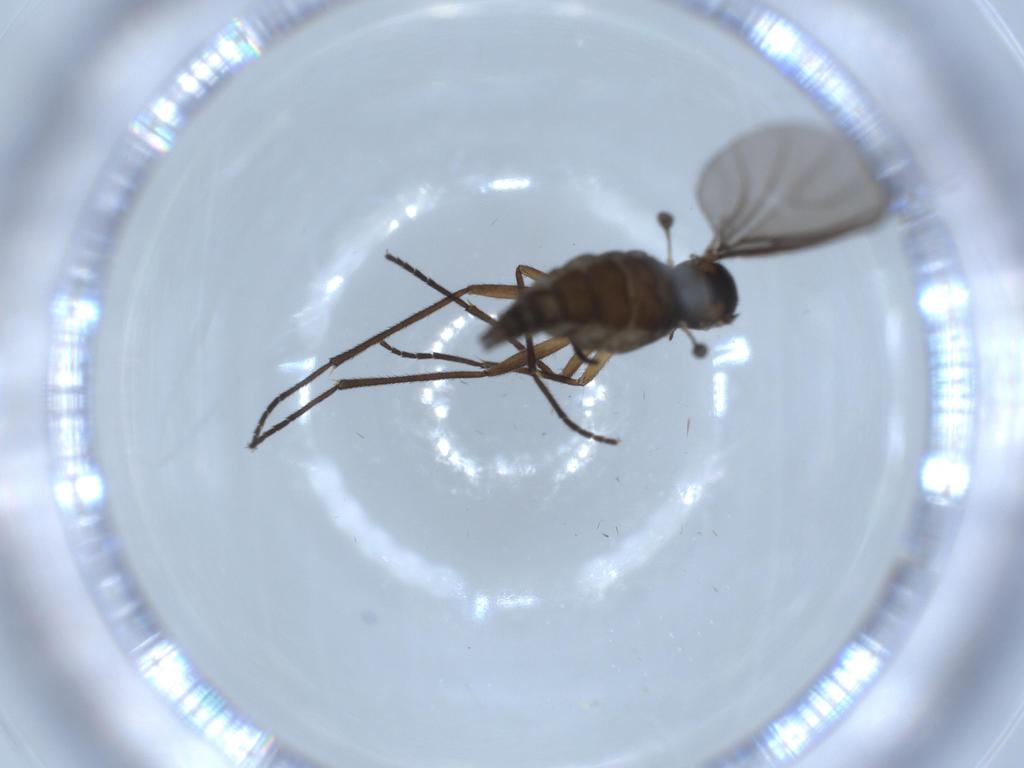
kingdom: Animalia
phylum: Arthropoda
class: Insecta
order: Diptera
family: Sciaridae
